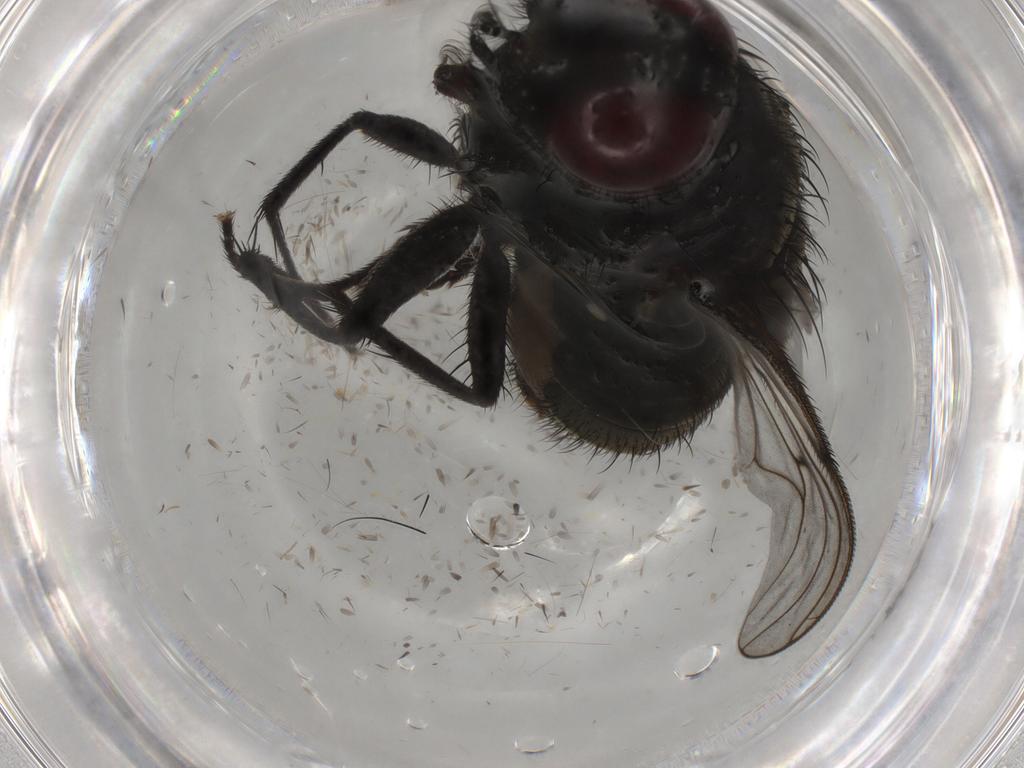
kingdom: Animalia
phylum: Arthropoda
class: Insecta
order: Diptera
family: Tachinidae
